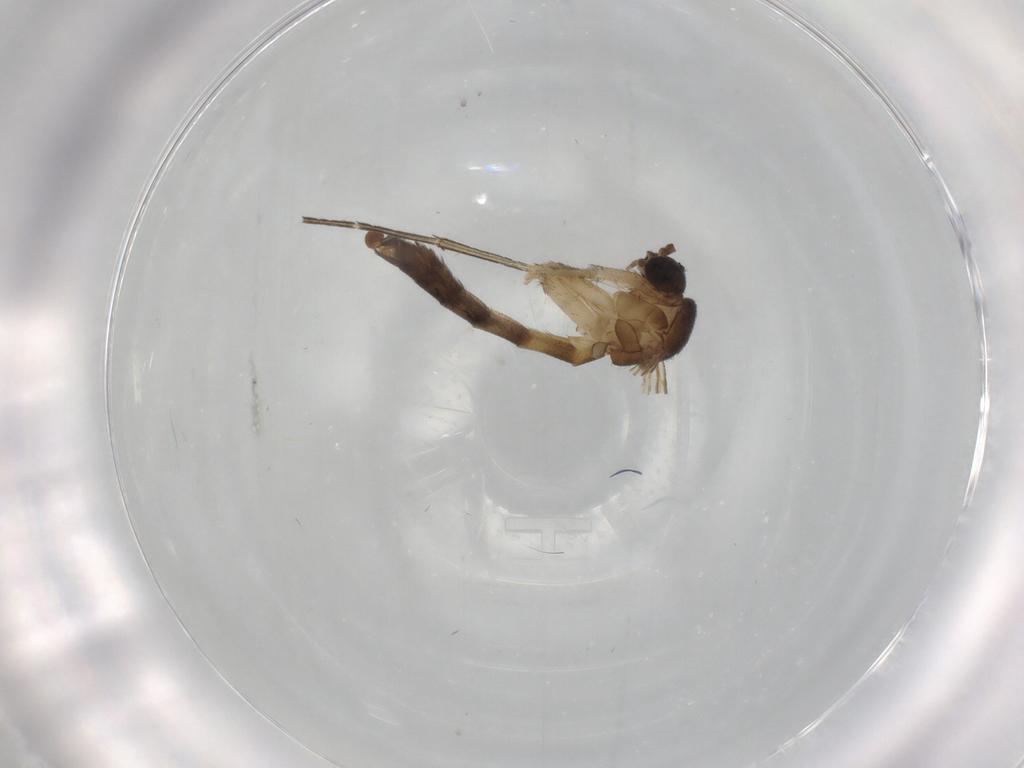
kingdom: Animalia
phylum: Arthropoda
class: Insecta
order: Diptera
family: Keroplatidae
